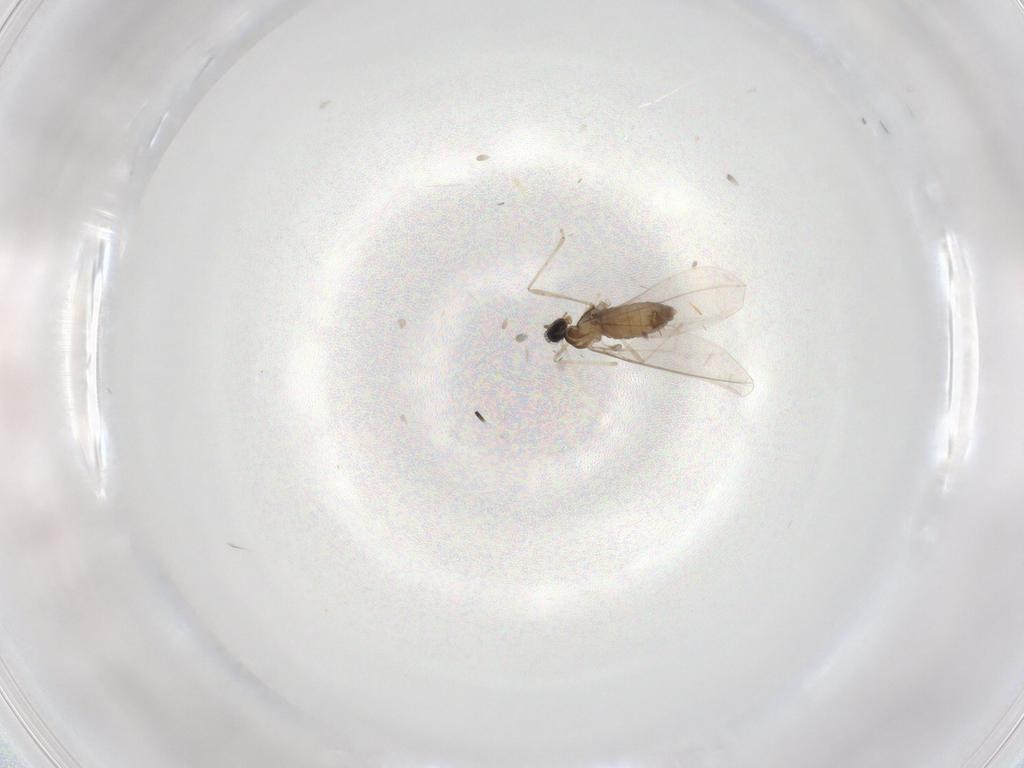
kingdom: Animalia
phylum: Arthropoda
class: Insecta
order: Diptera
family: Cecidomyiidae
